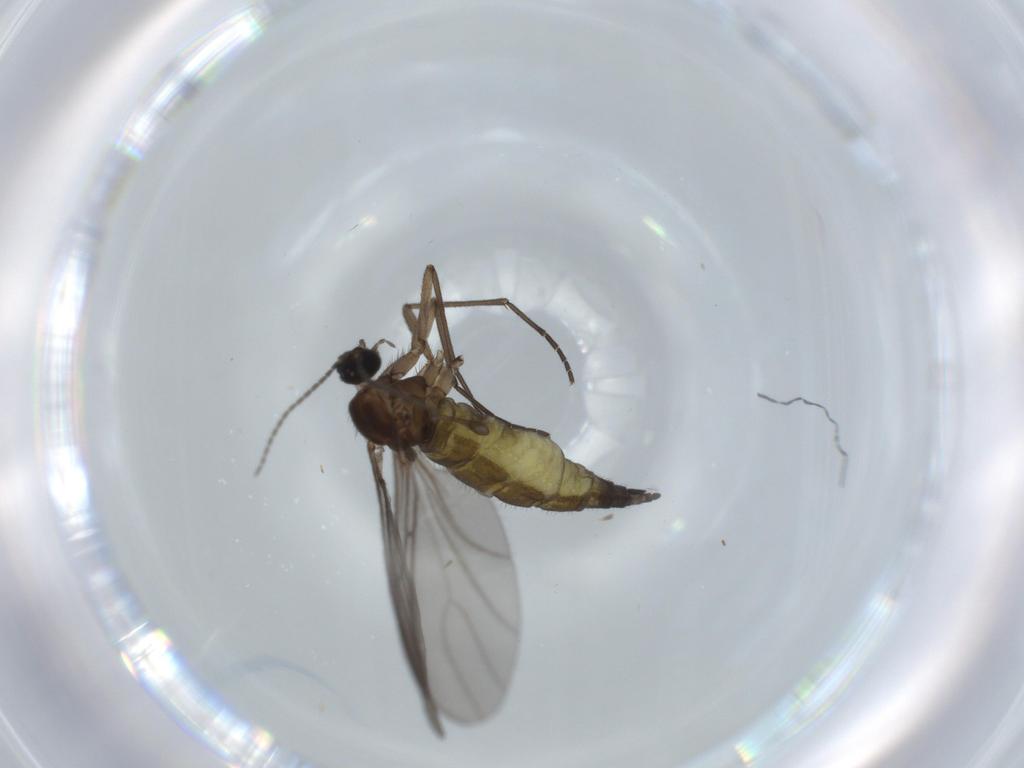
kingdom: Animalia
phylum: Arthropoda
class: Insecta
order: Diptera
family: Sciaridae
